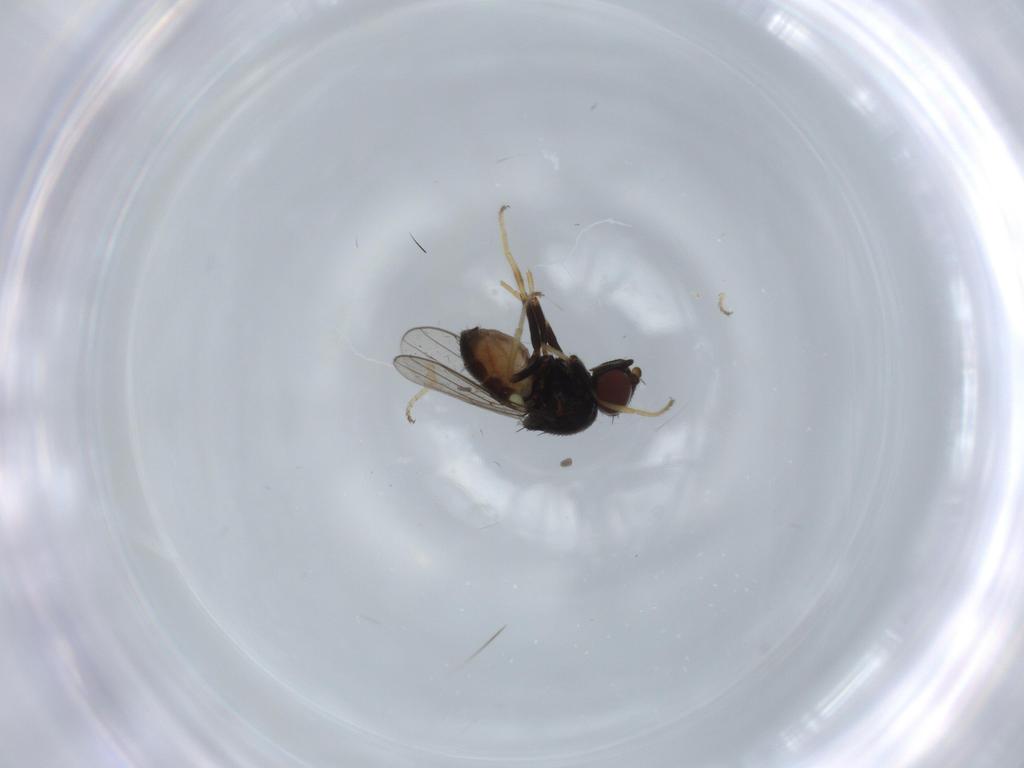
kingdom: Animalia
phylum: Arthropoda
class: Insecta
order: Diptera
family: Chloropidae
